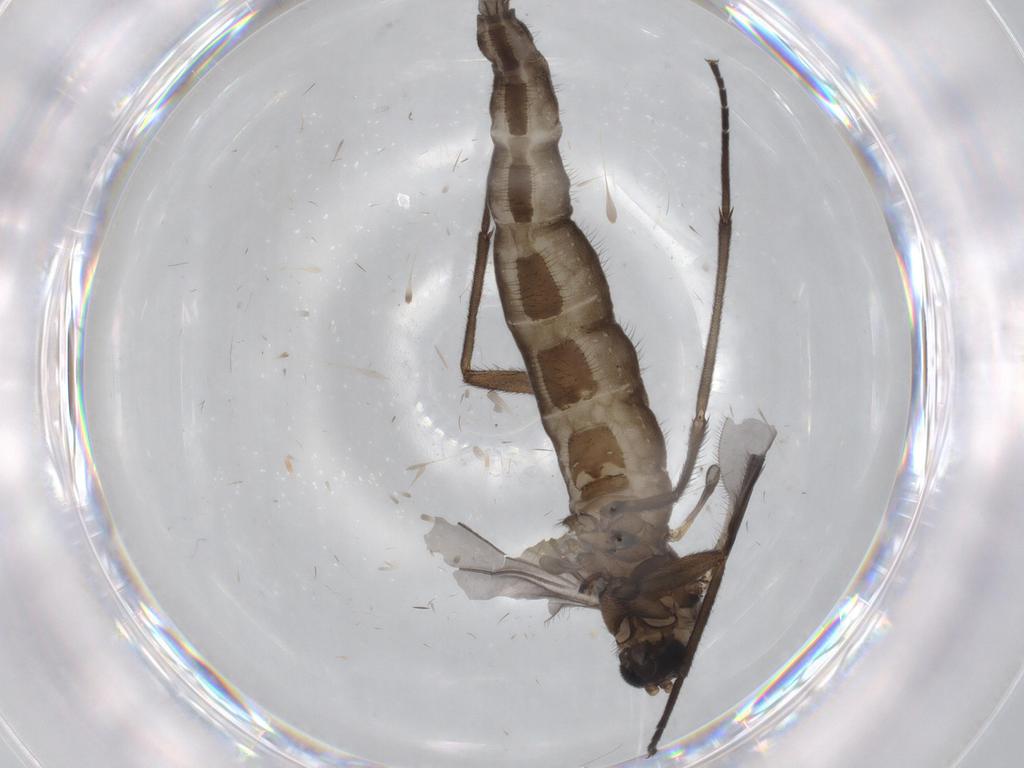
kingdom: Animalia
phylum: Arthropoda
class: Insecta
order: Diptera
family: Sciaridae
